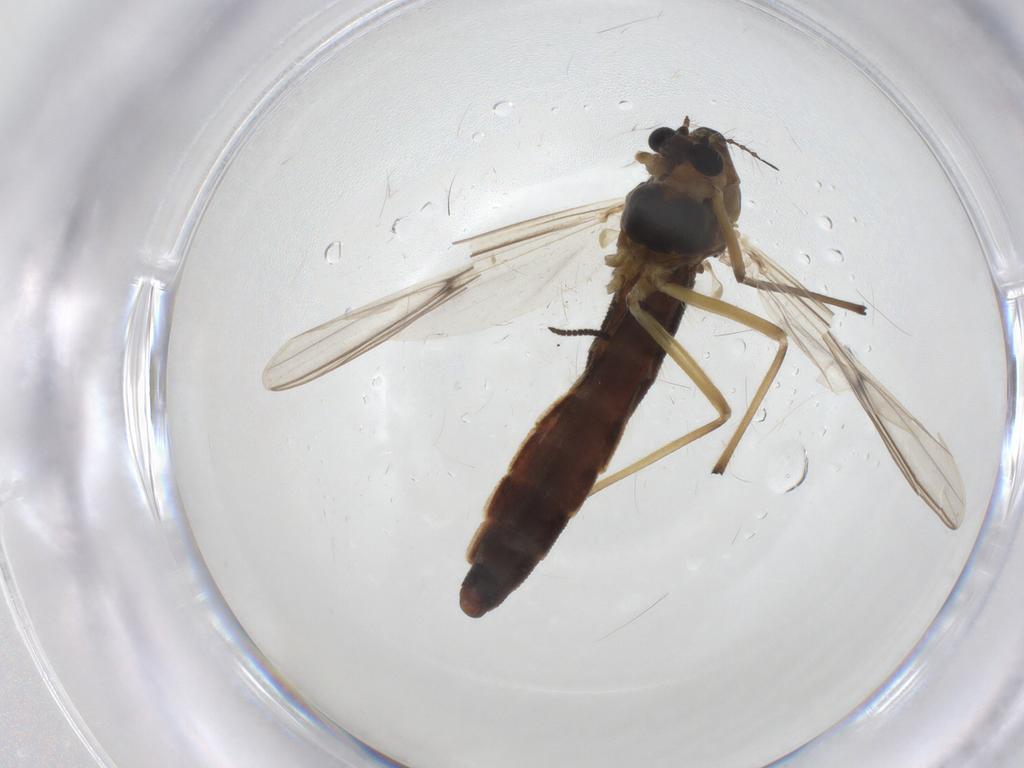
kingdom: Animalia
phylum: Arthropoda
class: Insecta
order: Diptera
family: Chironomidae
